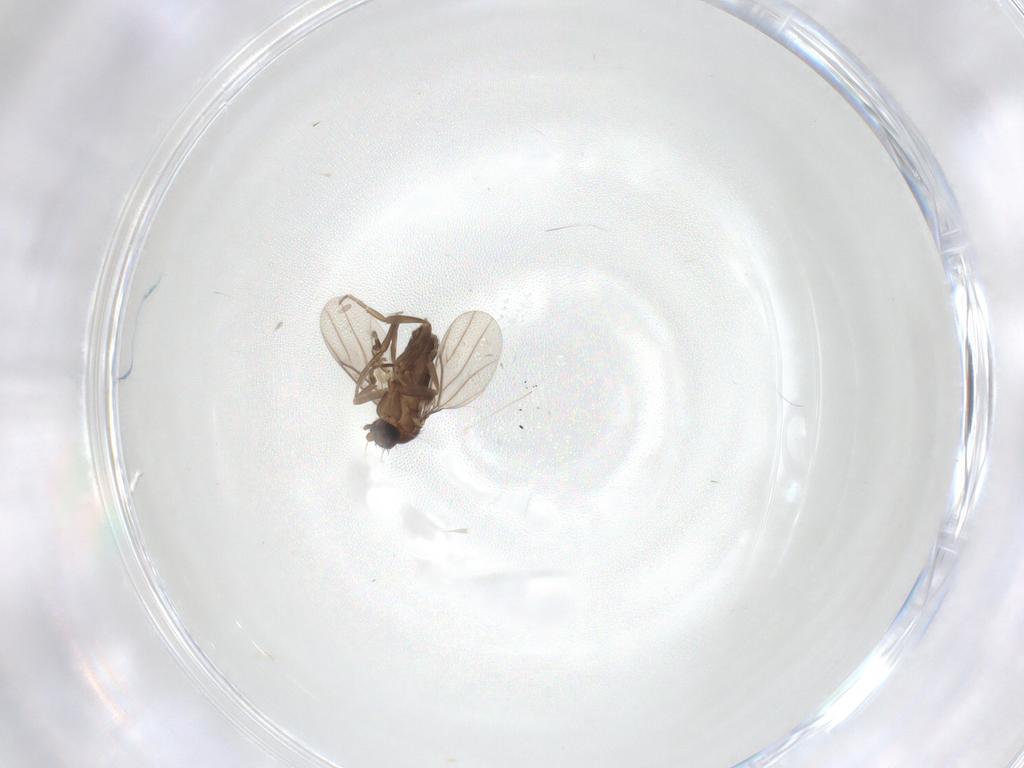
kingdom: Animalia
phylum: Arthropoda
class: Insecta
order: Diptera
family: Phoridae
